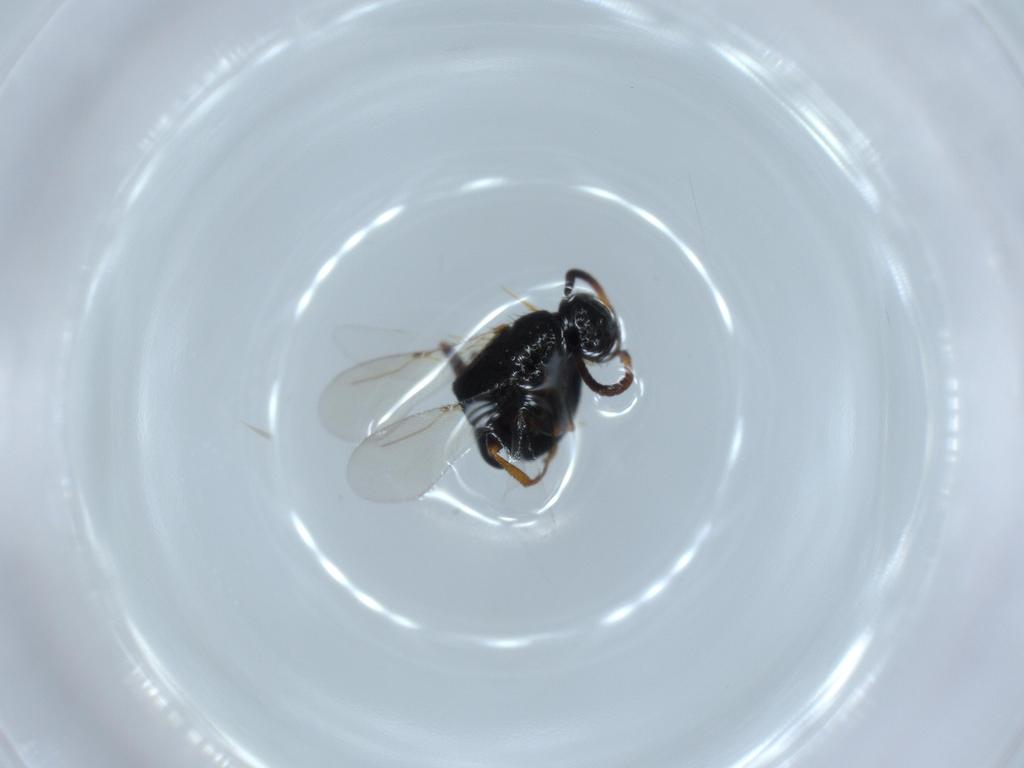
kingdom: Animalia
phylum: Arthropoda
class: Insecta
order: Hymenoptera
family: Bethylidae
